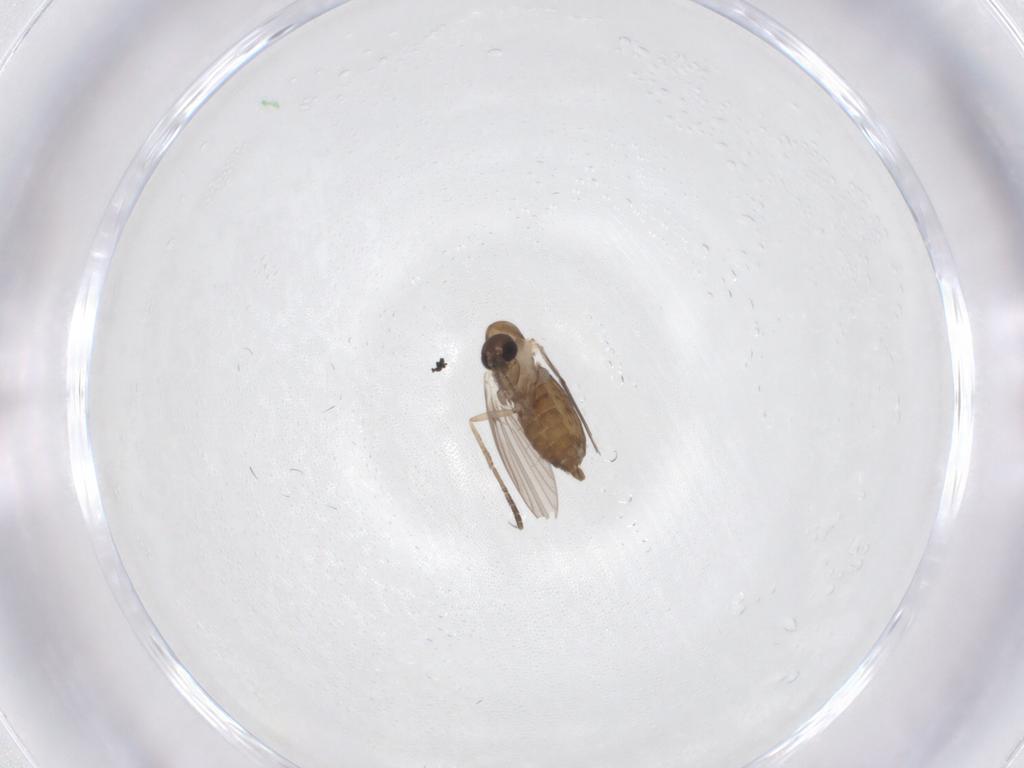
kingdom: Animalia
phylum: Arthropoda
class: Insecta
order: Diptera
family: Psychodidae
